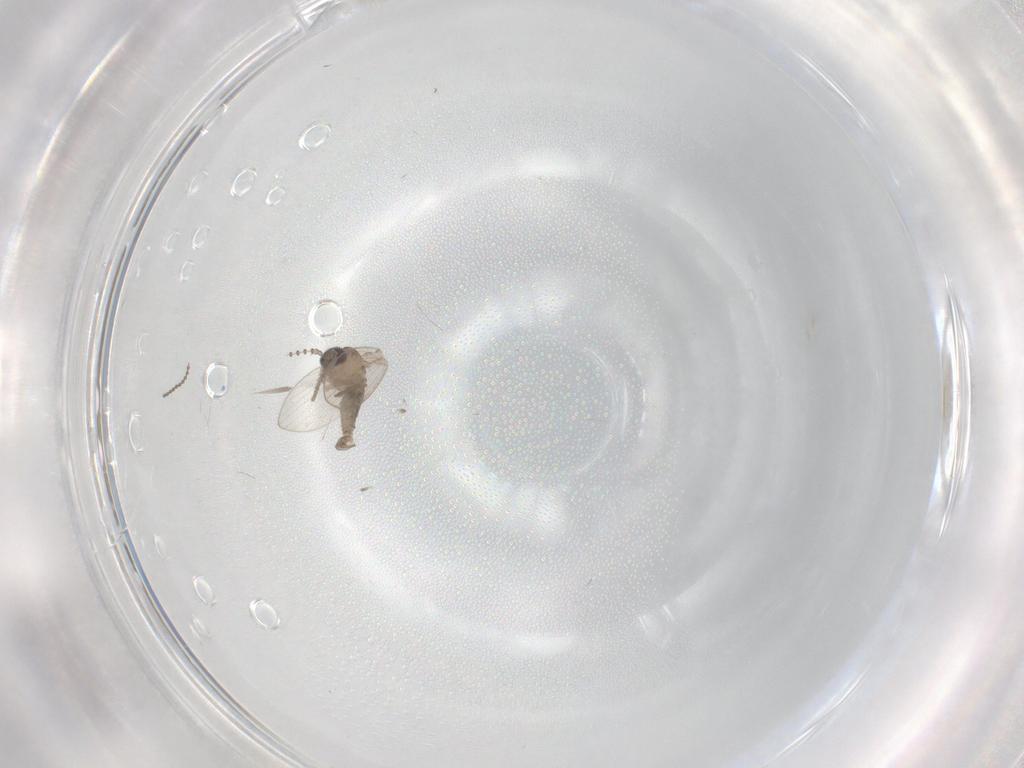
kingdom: Animalia
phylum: Arthropoda
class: Insecta
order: Diptera
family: Psychodidae
